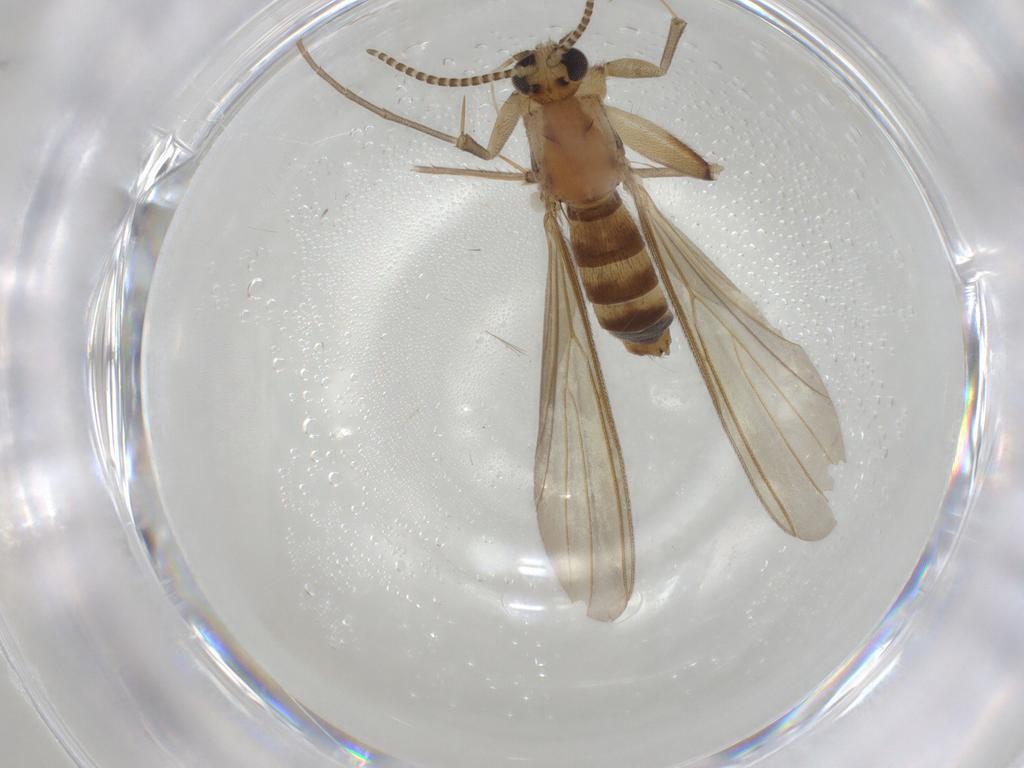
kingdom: Animalia
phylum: Arthropoda
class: Insecta
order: Diptera
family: Mycetophilidae
